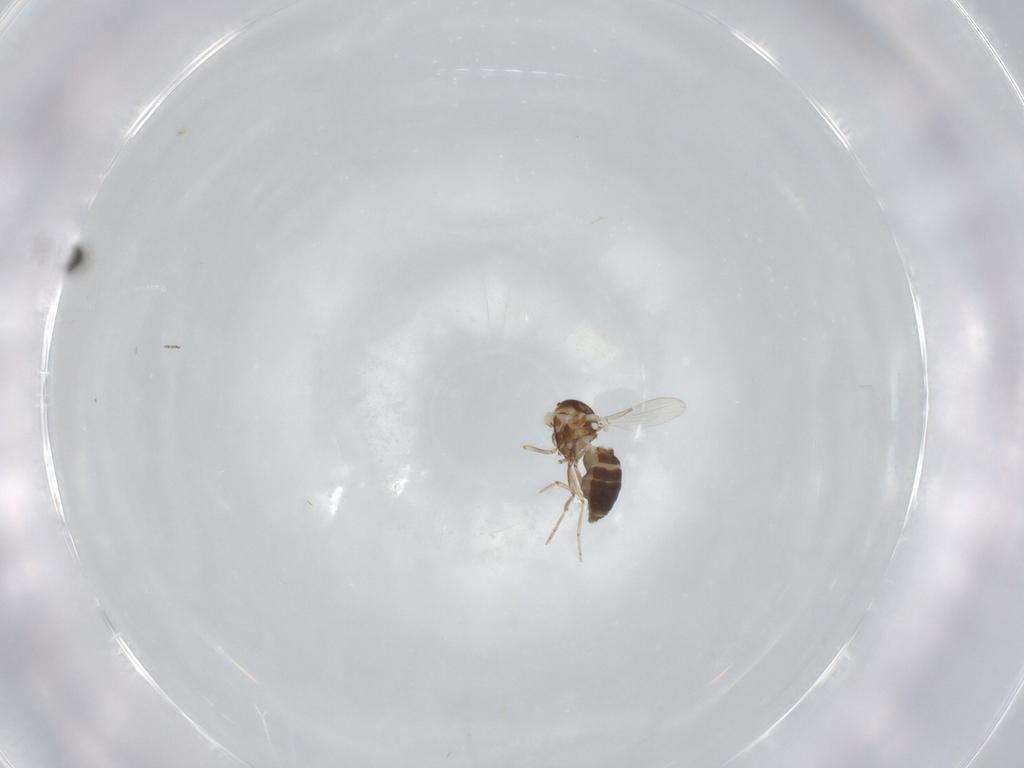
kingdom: Animalia
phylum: Arthropoda
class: Insecta
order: Diptera
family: Ceratopogonidae
